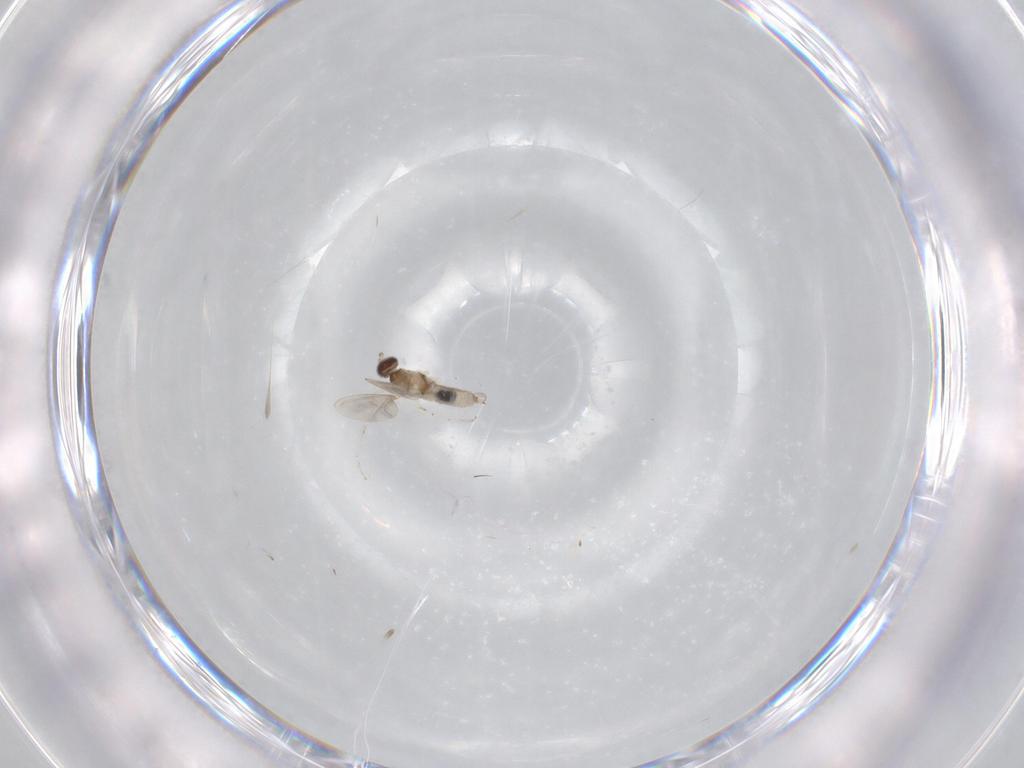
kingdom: Animalia
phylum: Arthropoda
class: Insecta
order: Diptera
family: Cecidomyiidae
